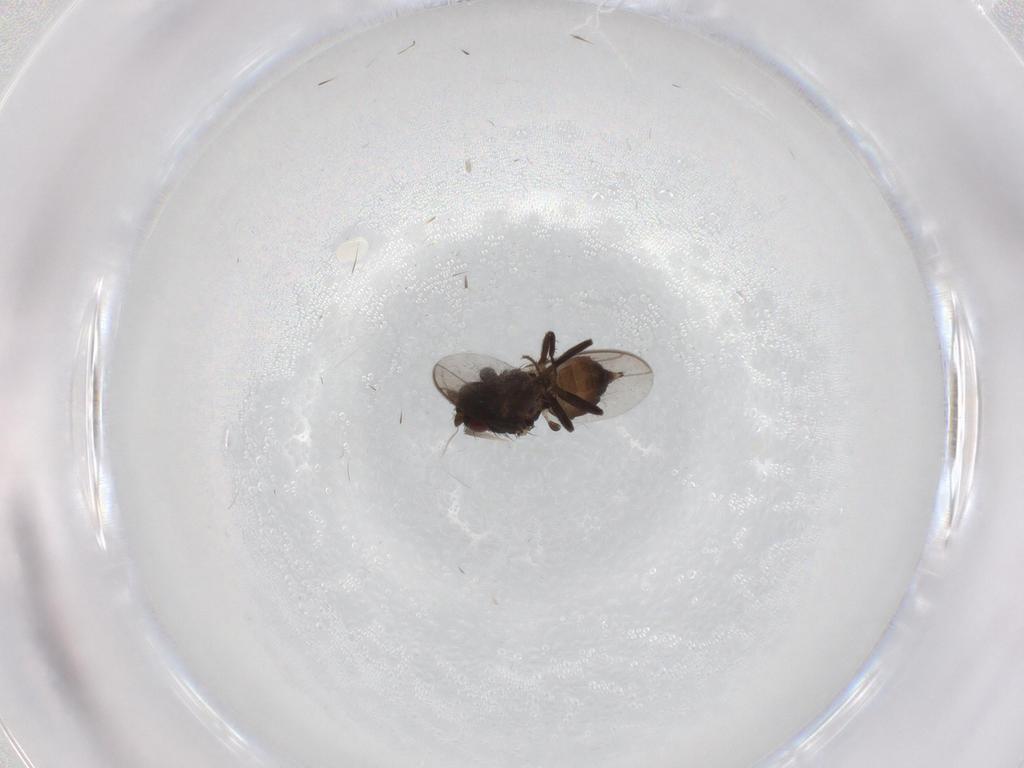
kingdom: Animalia
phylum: Arthropoda
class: Insecta
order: Diptera
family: Sphaeroceridae
